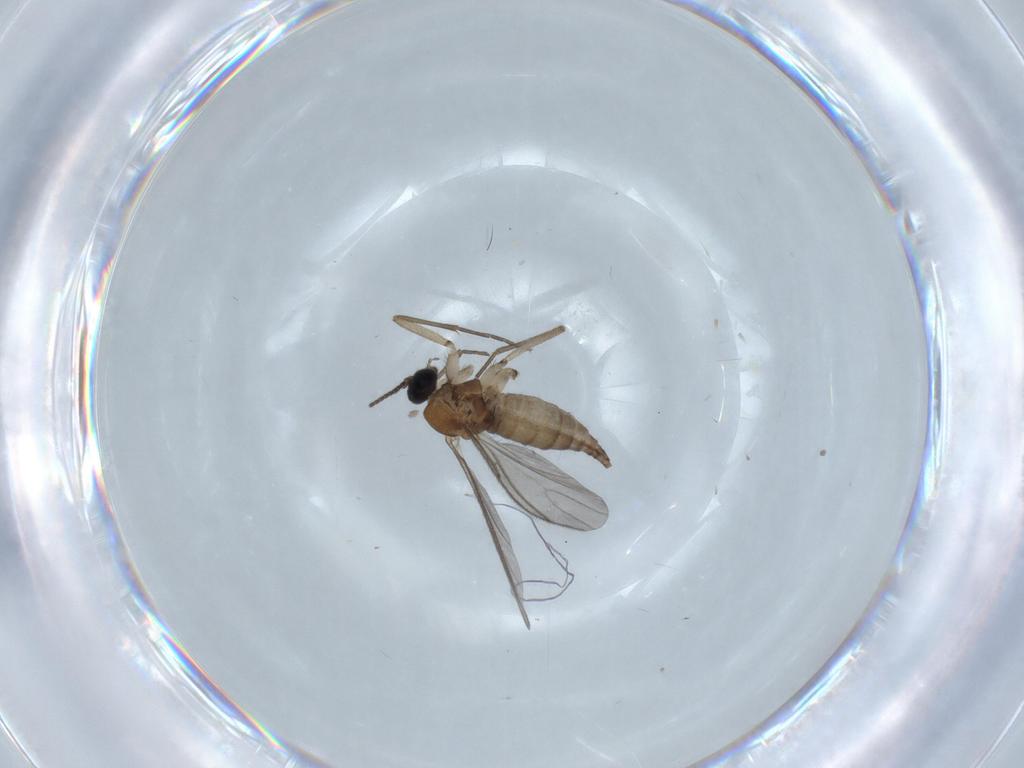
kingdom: Animalia
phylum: Arthropoda
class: Insecta
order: Diptera
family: Sciaridae
